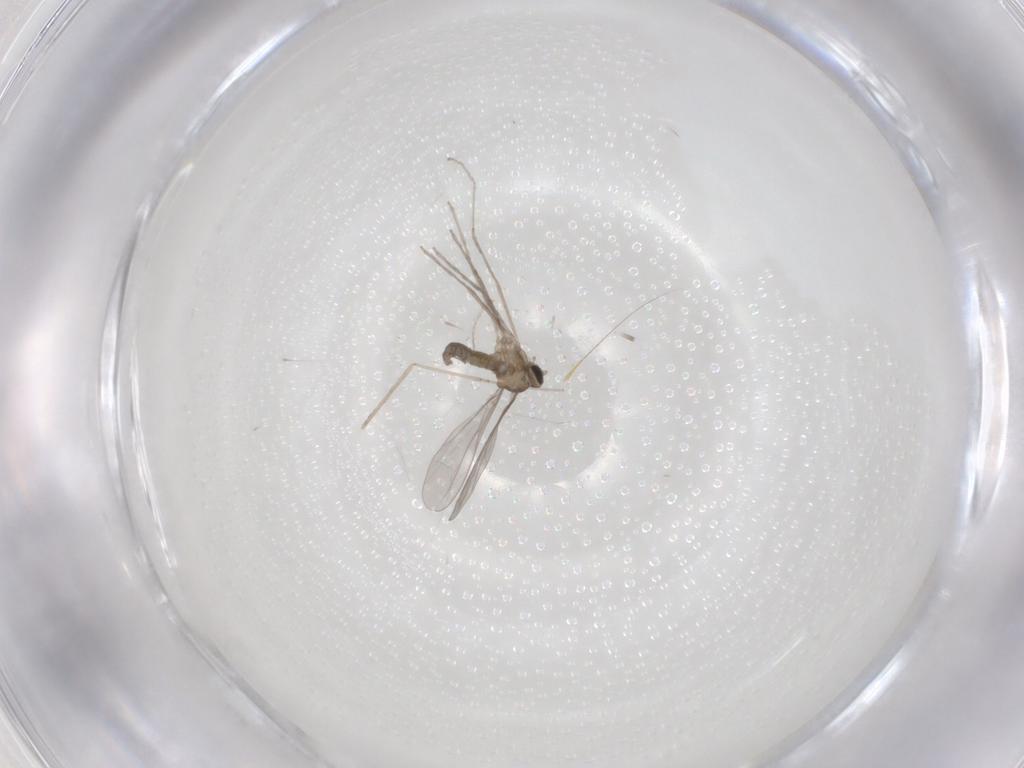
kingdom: Animalia
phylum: Arthropoda
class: Insecta
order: Diptera
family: Cecidomyiidae
